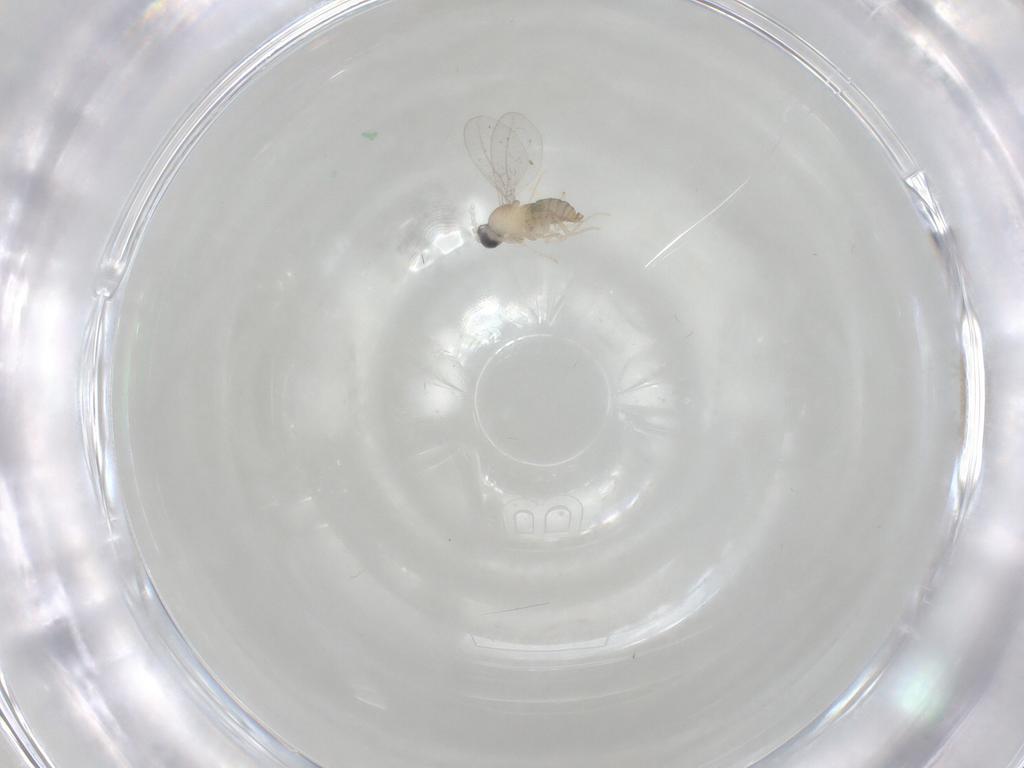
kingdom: Animalia
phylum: Arthropoda
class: Insecta
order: Diptera
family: Cecidomyiidae
